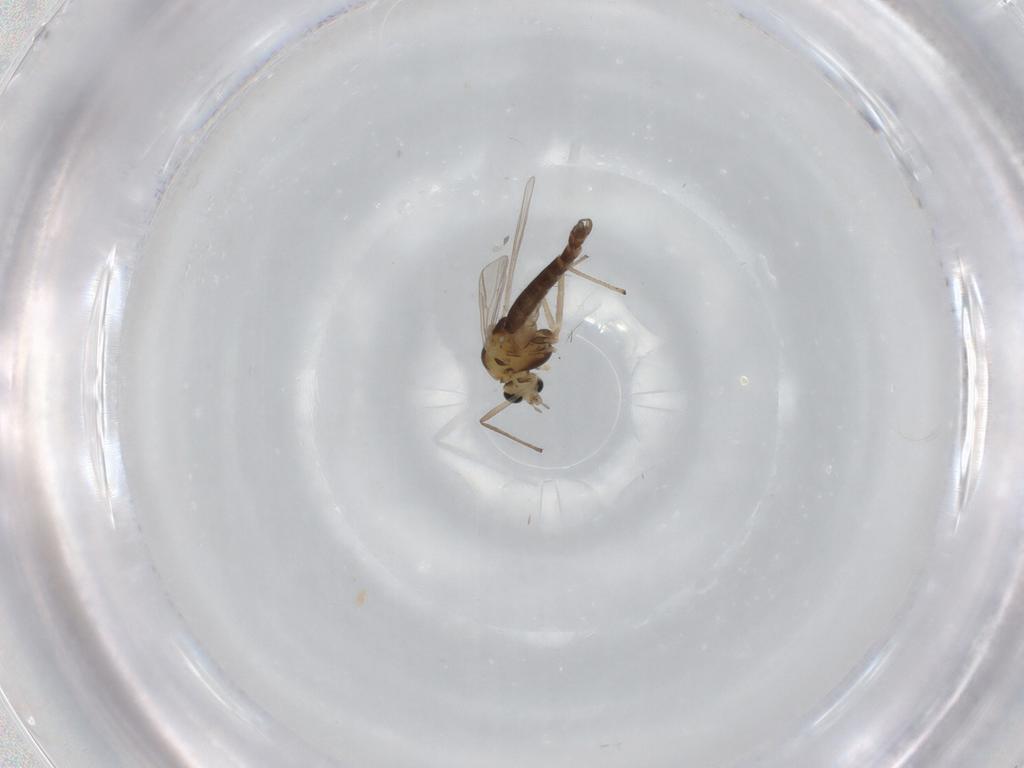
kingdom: Animalia
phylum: Arthropoda
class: Insecta
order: Diptera
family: Chironomidae
